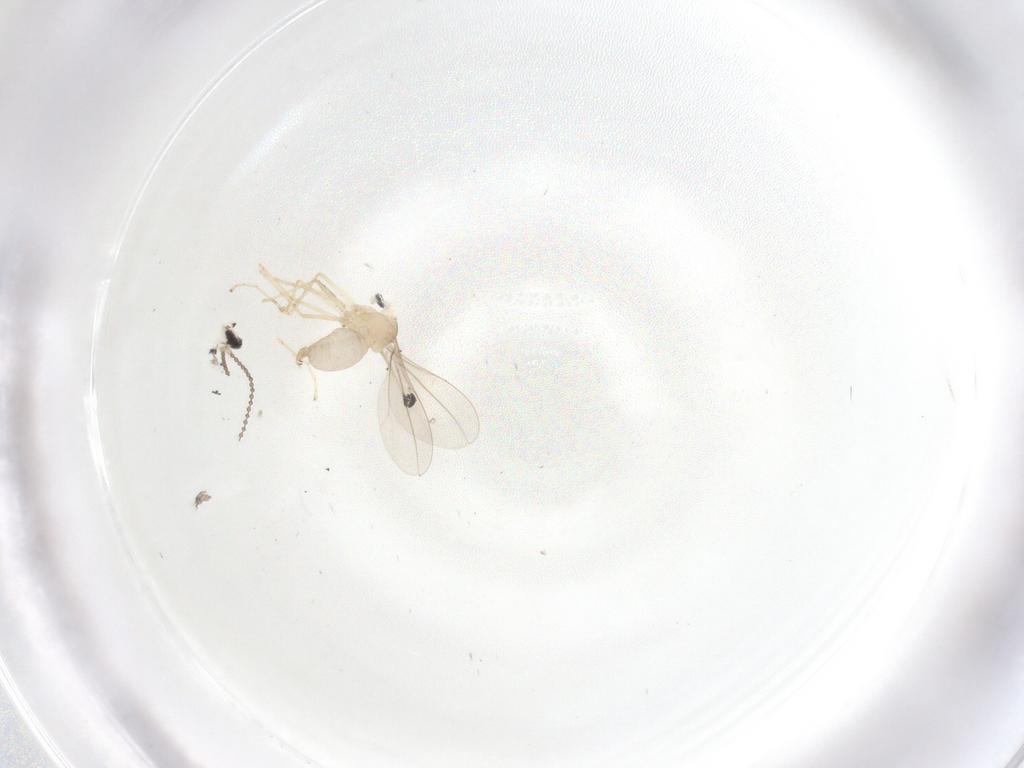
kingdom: Animalia
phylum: Arthropoda
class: Insecta
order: Diptera
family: Cecidomyiidae
